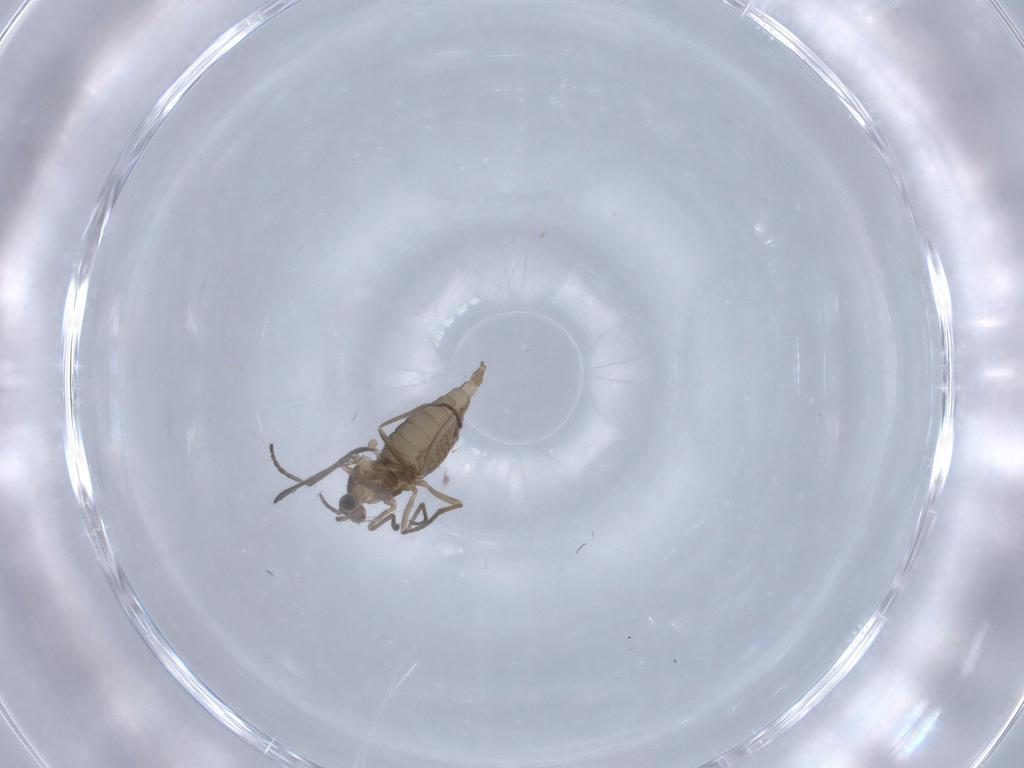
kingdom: Animalia
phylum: Arthropoda
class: Insecta
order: Diptera
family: Cecidomyiidae
